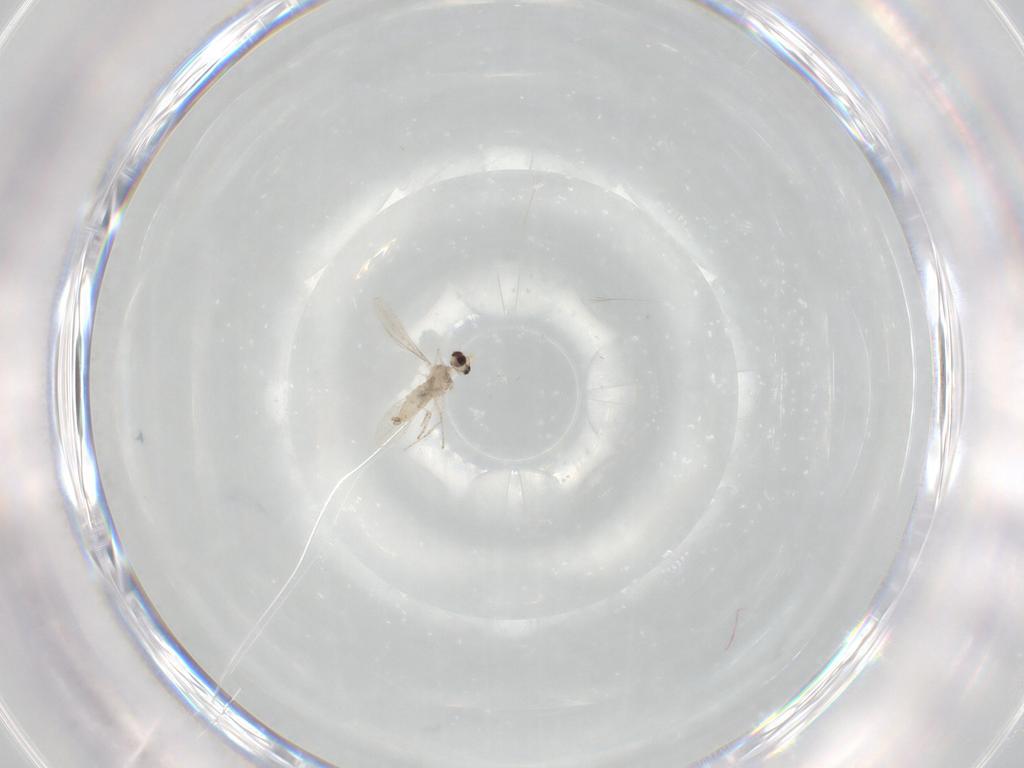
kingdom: Animalia
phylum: Arthropoda
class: Insecta
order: Diptera
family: Cecidomyiidae
